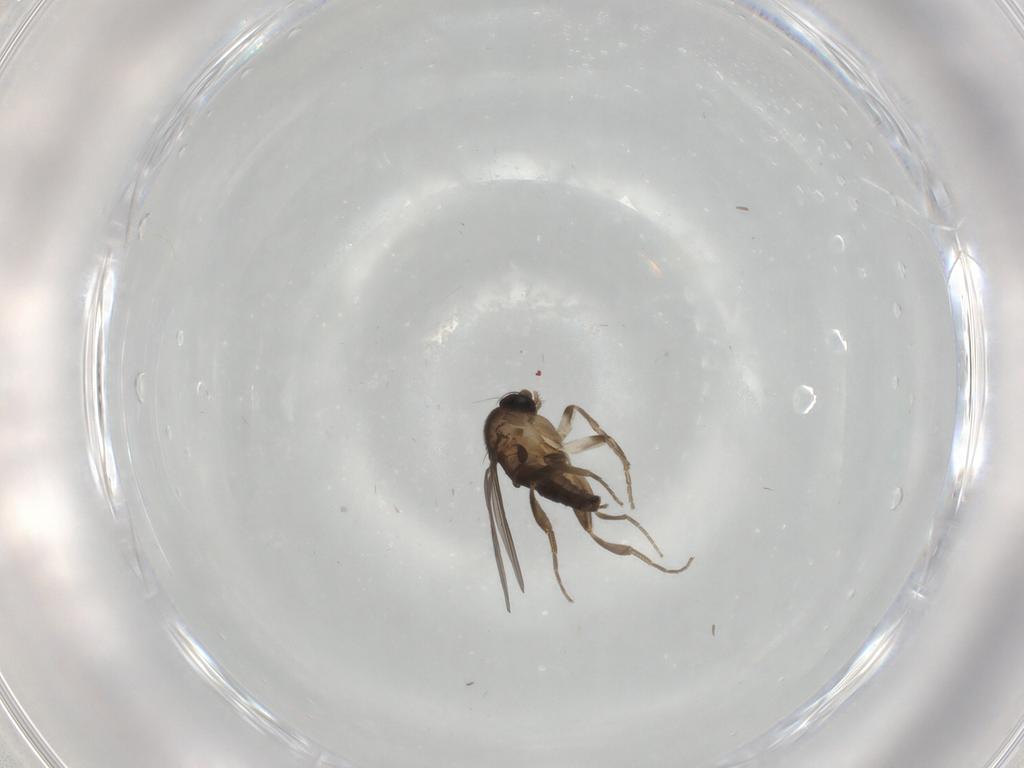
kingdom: Animalia
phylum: Arthropoda
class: Insecta
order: Diptera
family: Chironomidae
